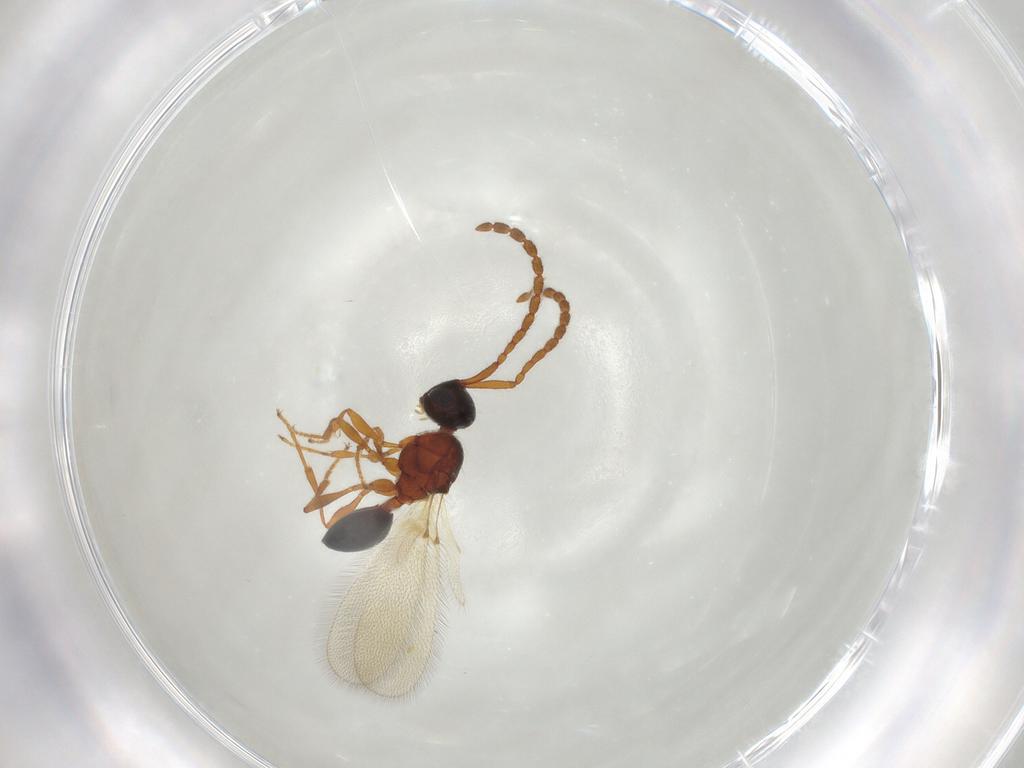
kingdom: Animalia
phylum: Arthropoda
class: Insecta
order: Hymenoptera
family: Diapriidae
